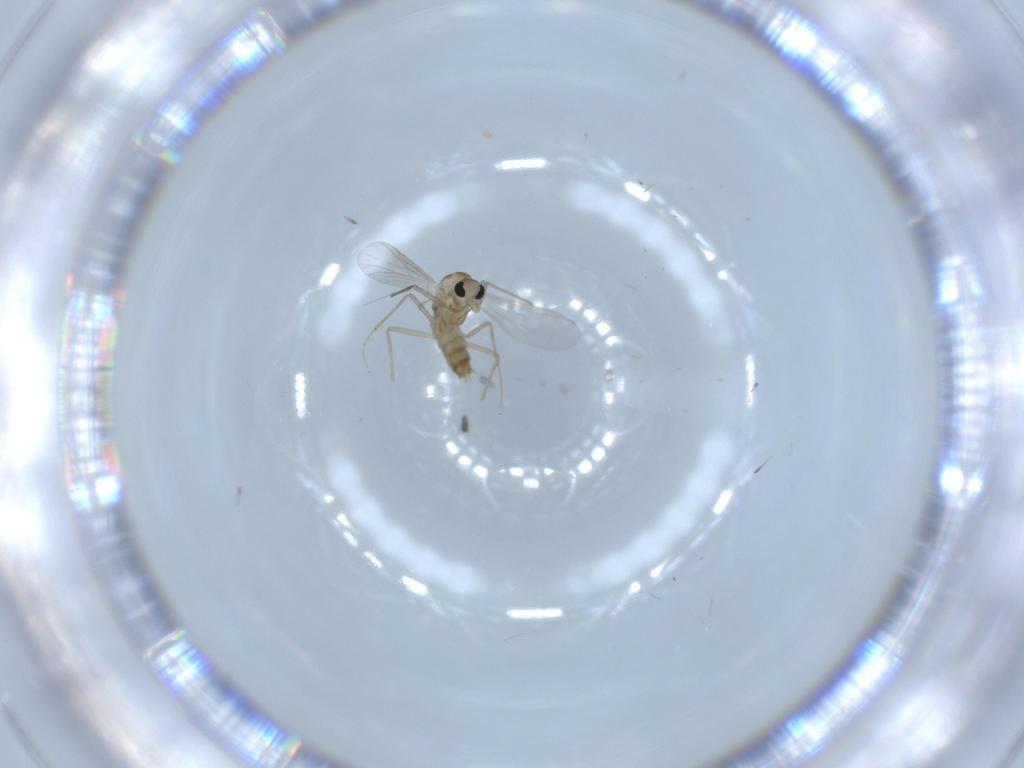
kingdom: Animalia
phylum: Arthropoda
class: Insecta
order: Diptera
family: Chironomidae
